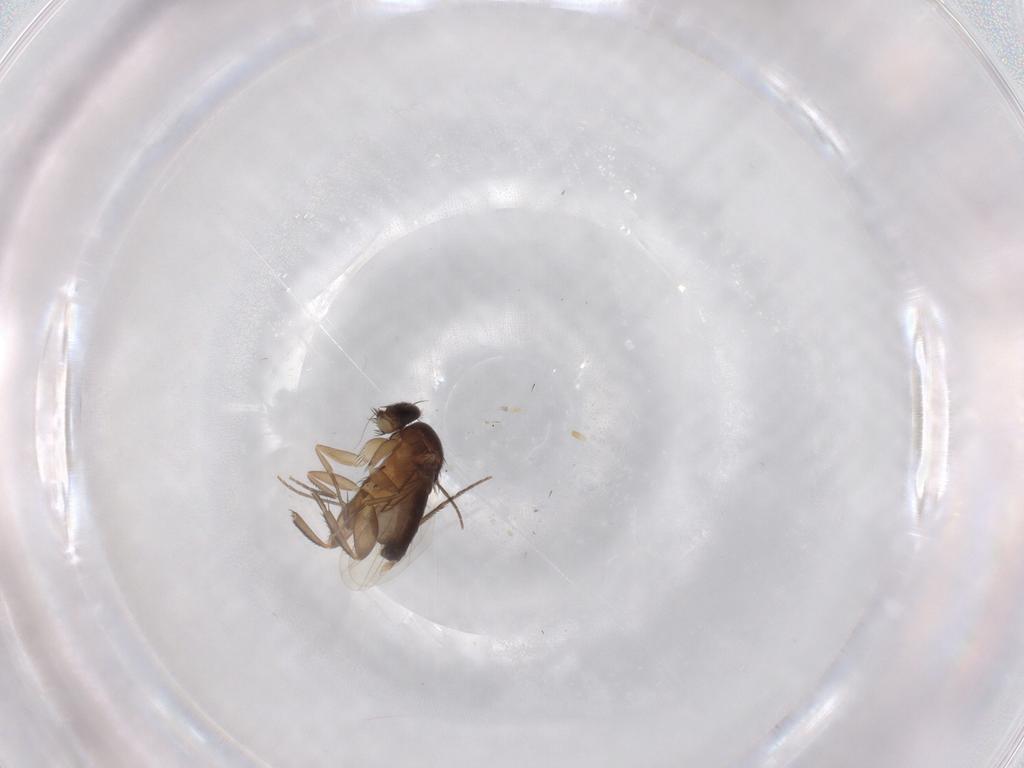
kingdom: Animalia
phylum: Arthropoda
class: Insecta
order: Diptera
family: Phoridae
